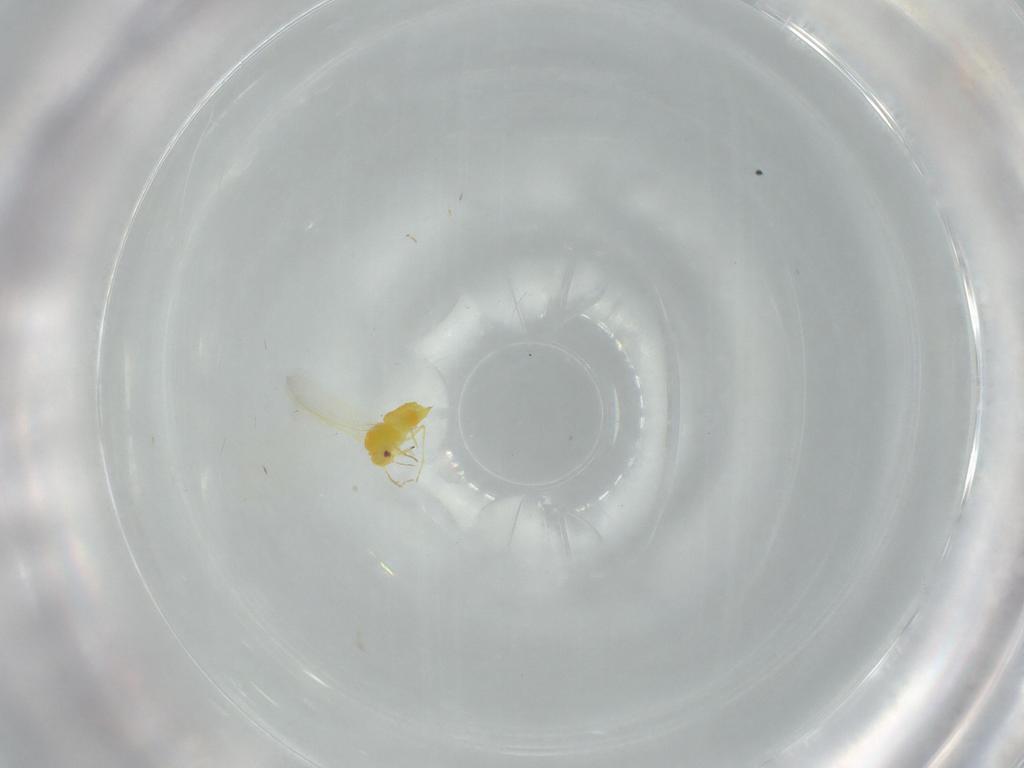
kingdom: Animalia
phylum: Arthropoda
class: Insecta
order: Hemiptera
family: Aleyrodidae
